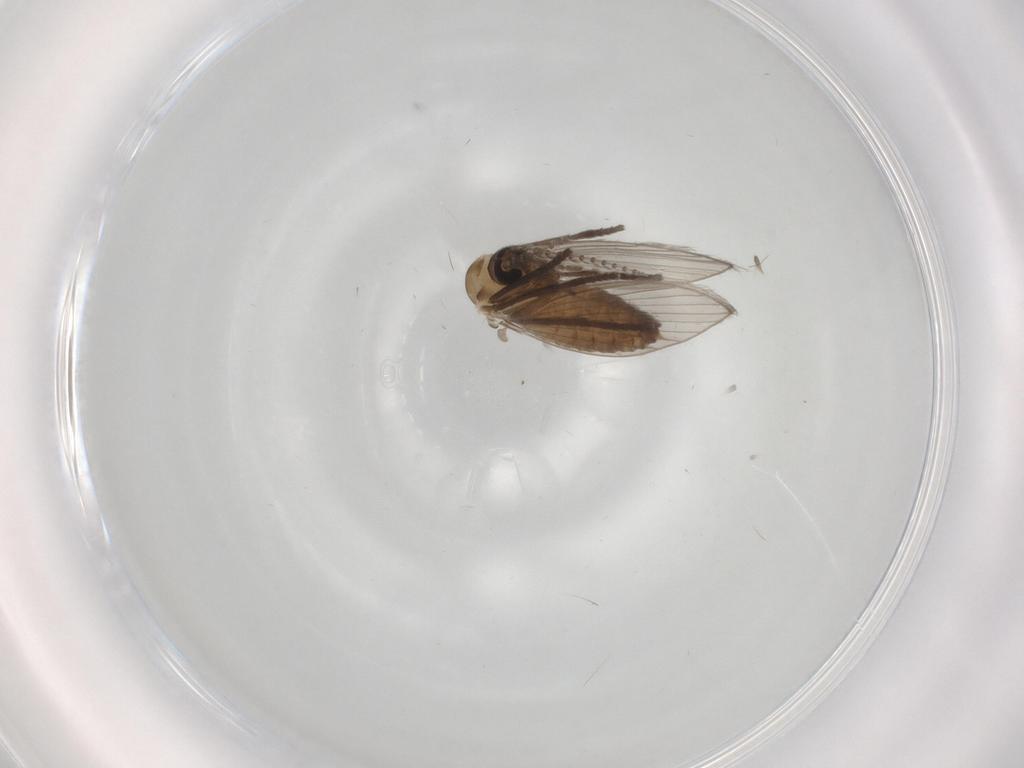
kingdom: Animalia
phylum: Arthropoda
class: Insecta
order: Diptera
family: Psychodidae
